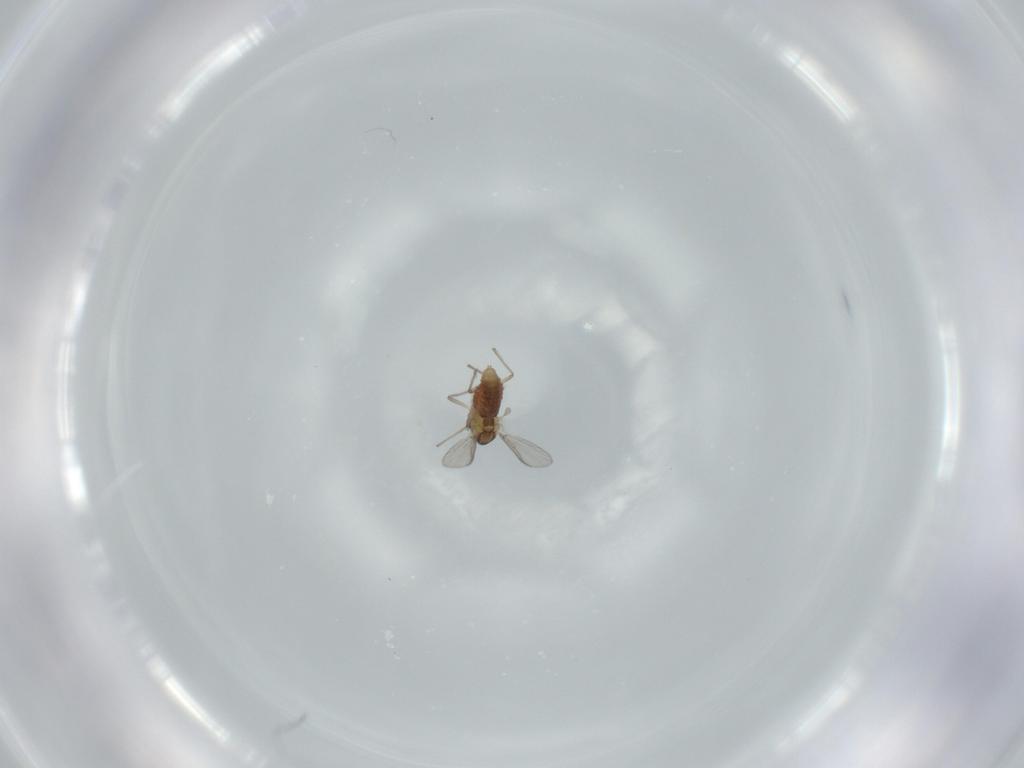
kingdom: Animalia
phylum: Arthropoda
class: Insecta
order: Diptera
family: Chironomidae
